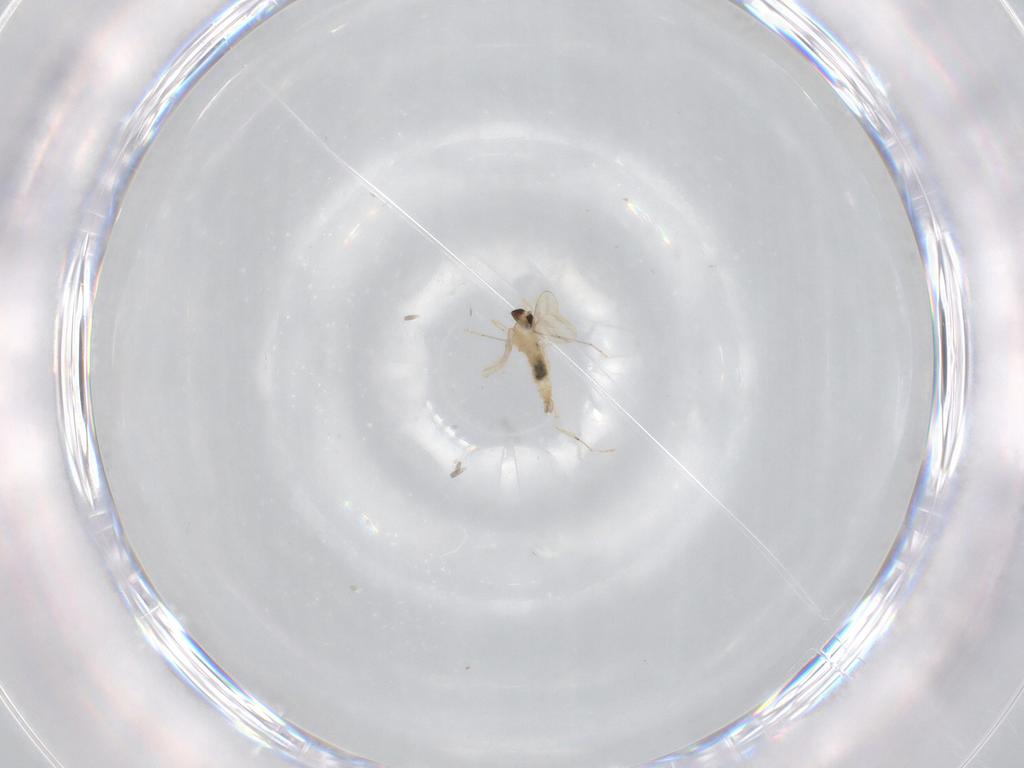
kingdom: Animalia
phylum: Arthropoda
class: Insecta
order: Diptera
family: Cecidomyiidae
